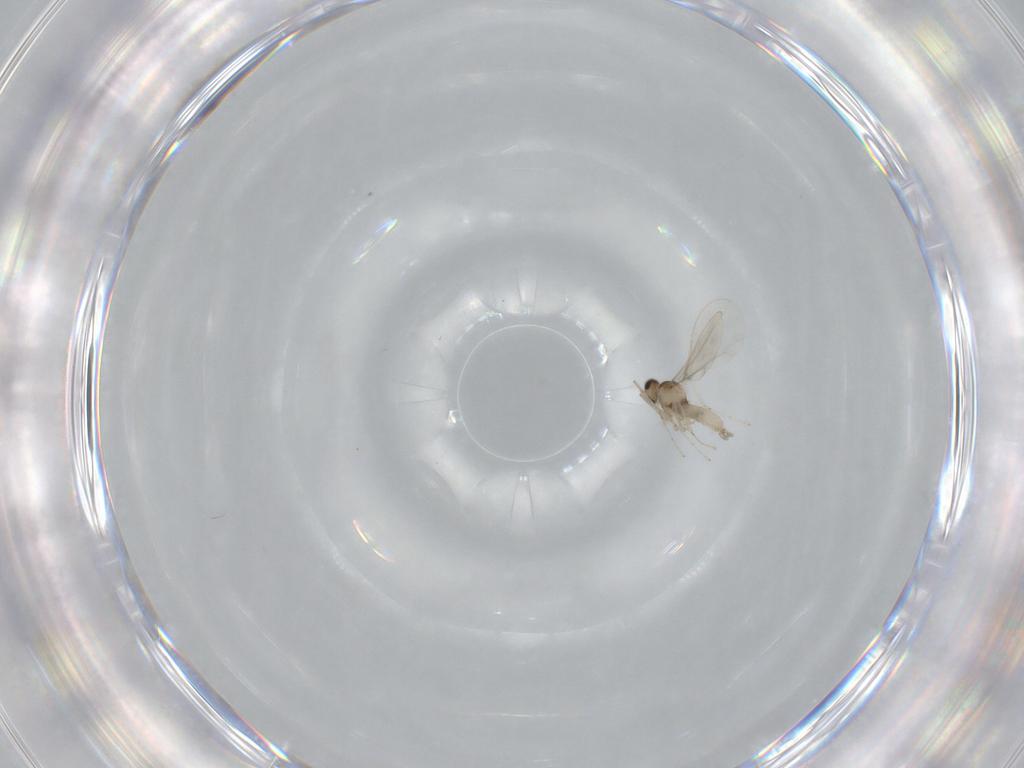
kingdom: Animalia
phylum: Arthropoda
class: Insecta
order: Diptera
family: Cecidomyiidae
